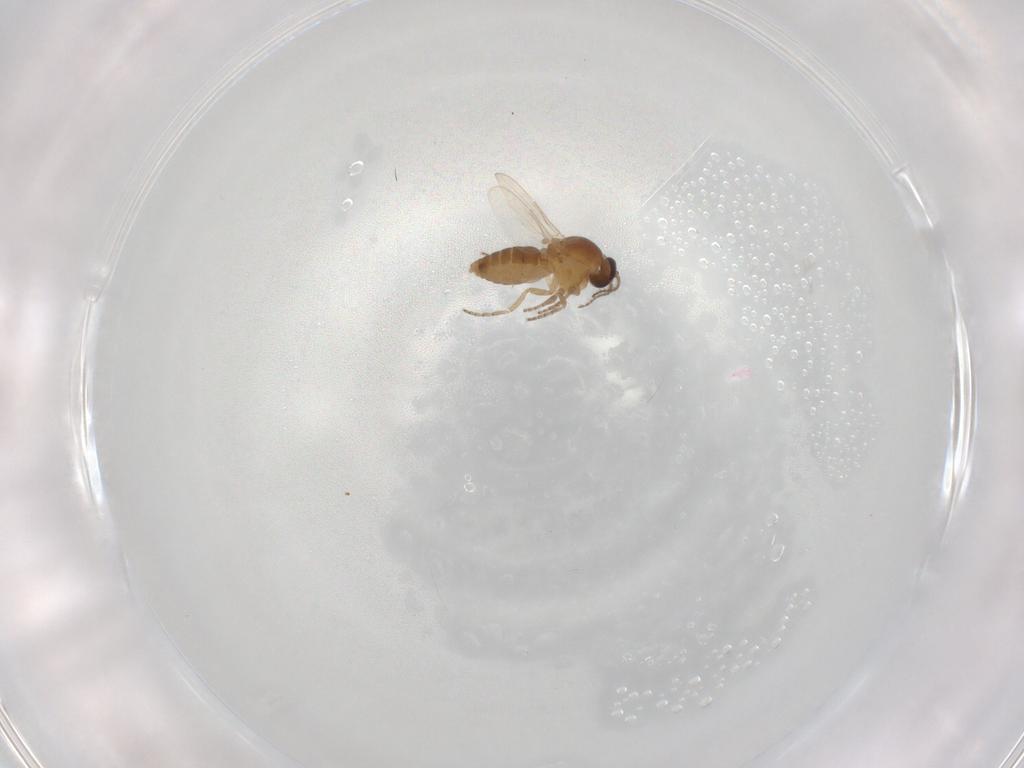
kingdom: Animalia
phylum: Arthropoda
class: Insecta
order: Diptera
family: Ceratopogonidae
